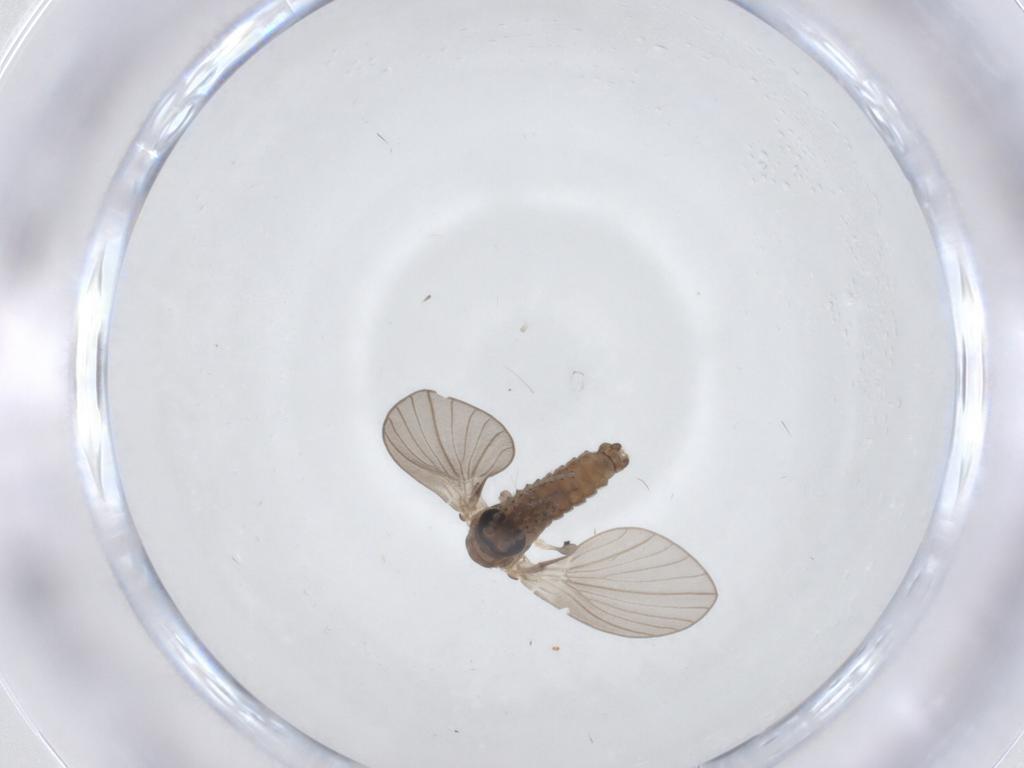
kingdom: Animalia
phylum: Arthropoda
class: Insecta
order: Diptera
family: Psychodidae
